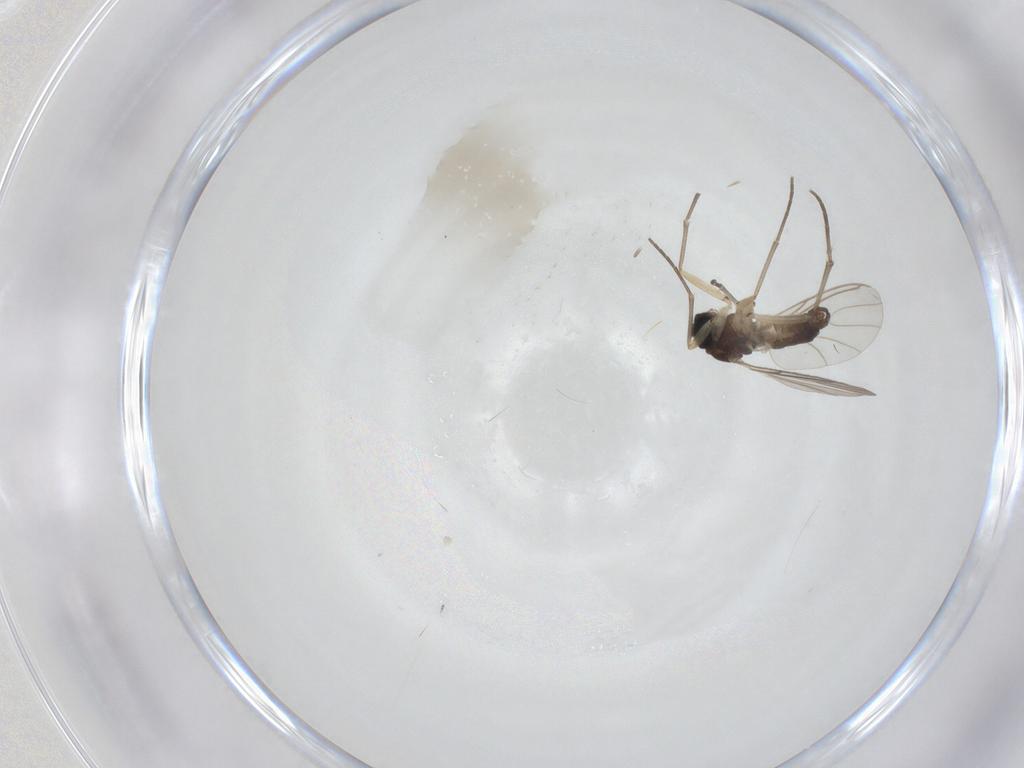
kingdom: Animalia
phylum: Arthropoda
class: Insecta
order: Diptera
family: Sciaridae
